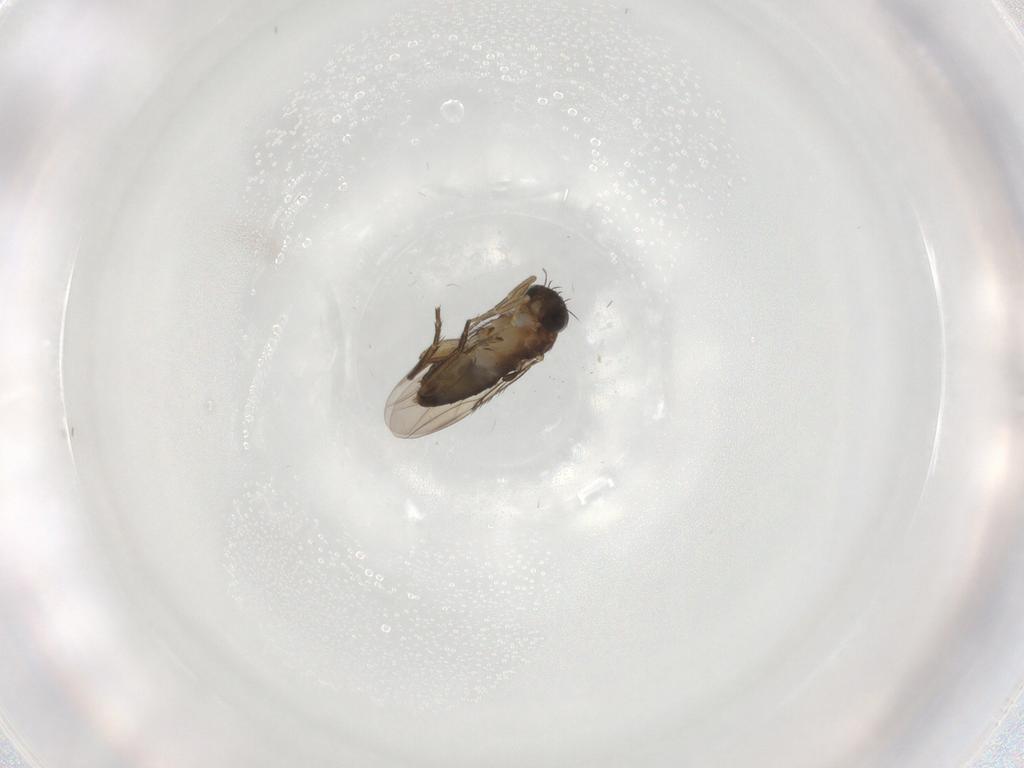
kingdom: Animalia
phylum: Arthropoda
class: Insecta
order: Diptera
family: Phoridae
